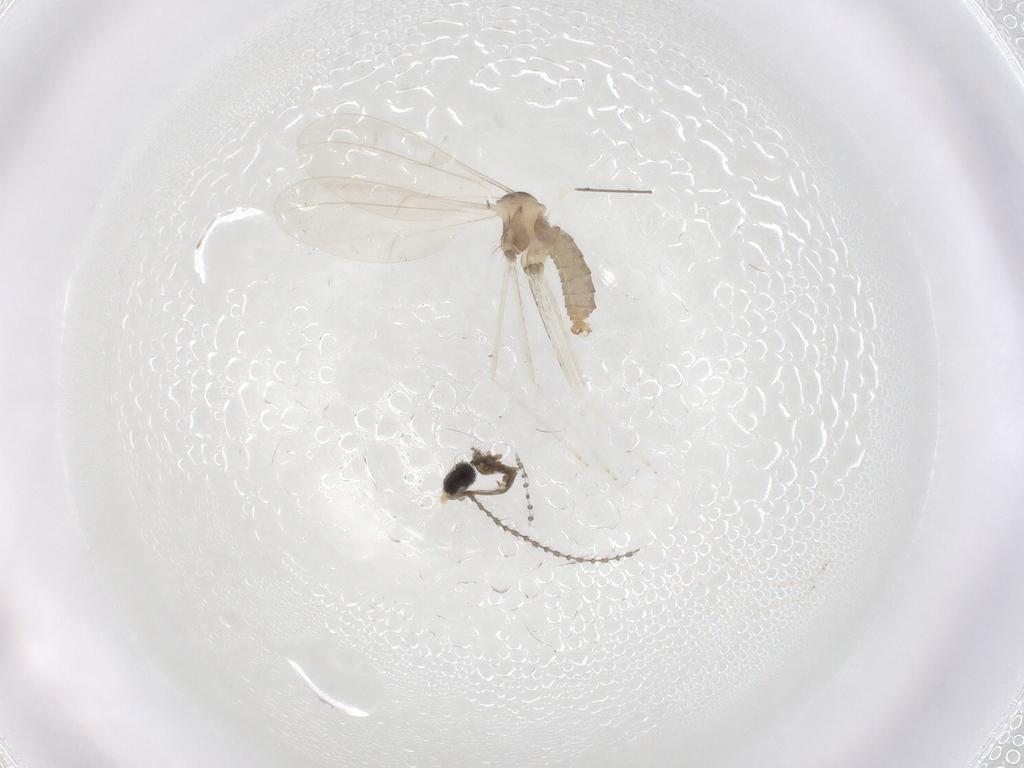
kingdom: Animalia
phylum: Arthropoda
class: Insecta
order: Diptera
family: Cecidomyiidae
